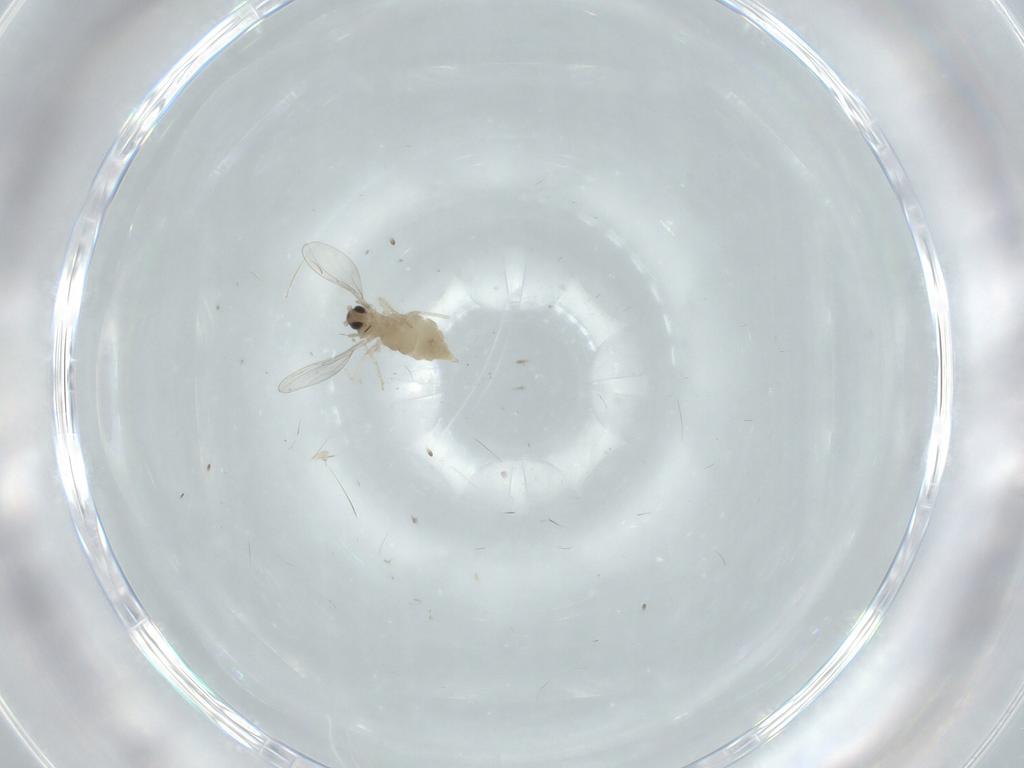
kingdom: Animalia
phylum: Arthropoda
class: Insecta
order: Diptera
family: Cecidomyiidae
